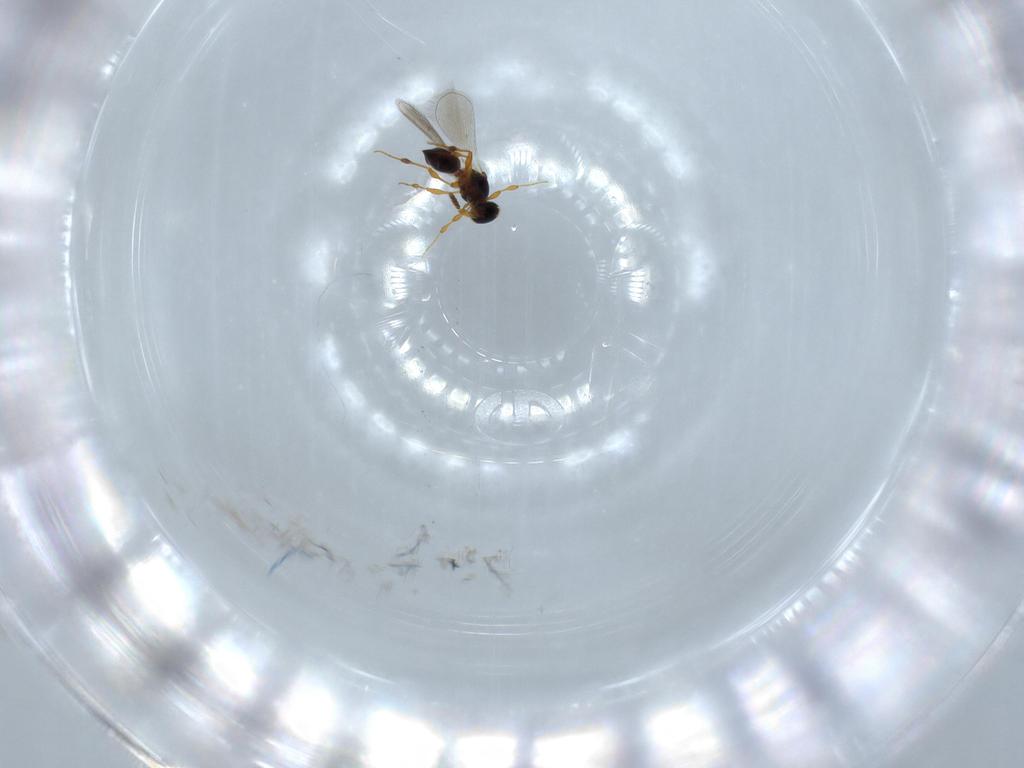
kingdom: Animalia
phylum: Arthropoda
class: Insecta
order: Hymenoptera
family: Platygastridae
